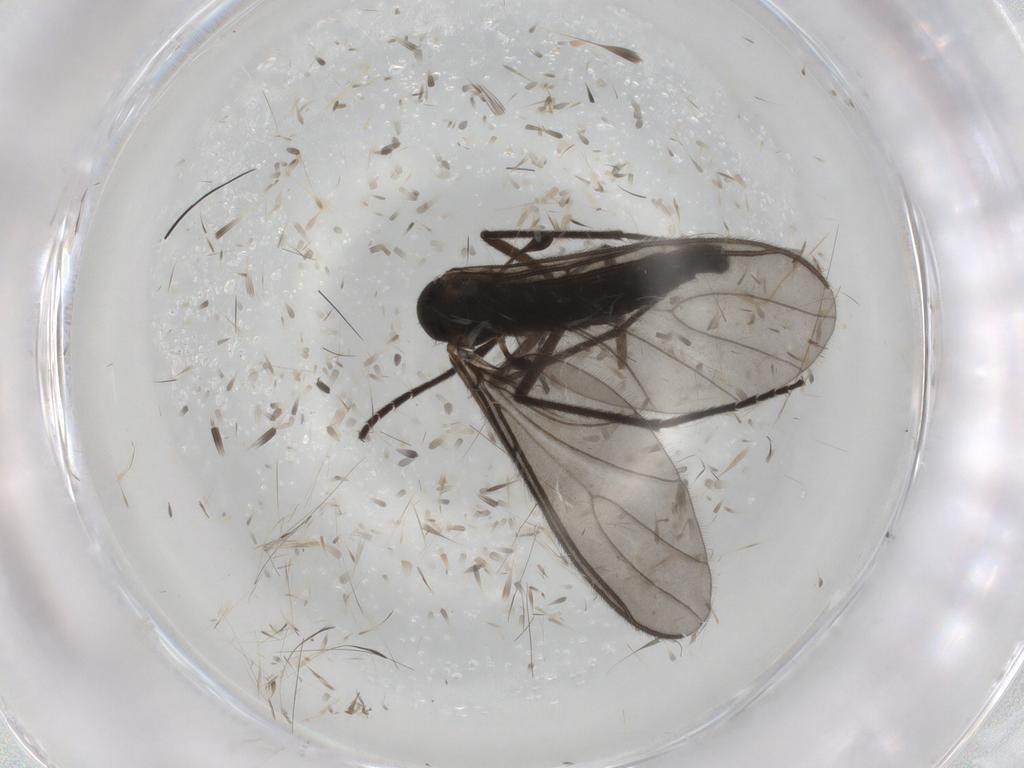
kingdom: Animalia
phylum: Arthropoda
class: Insecta
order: Diptera
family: Sciaridae
